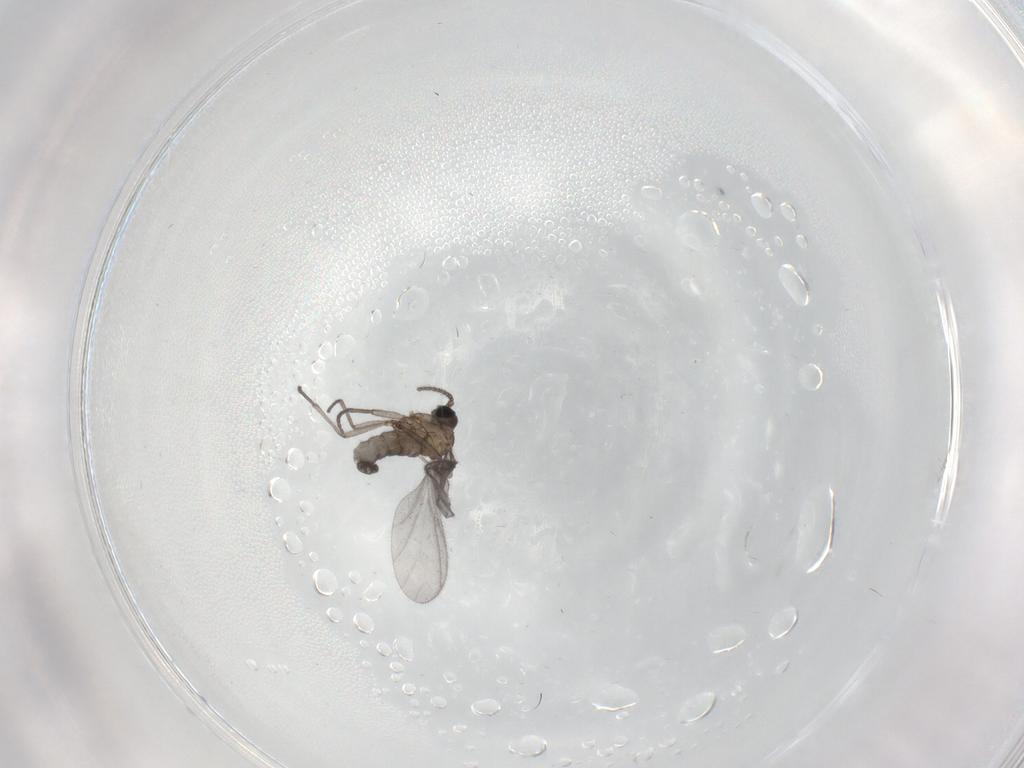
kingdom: Animalia
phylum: Arthropoda
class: Insecta
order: Diptera
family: Sciaridae
